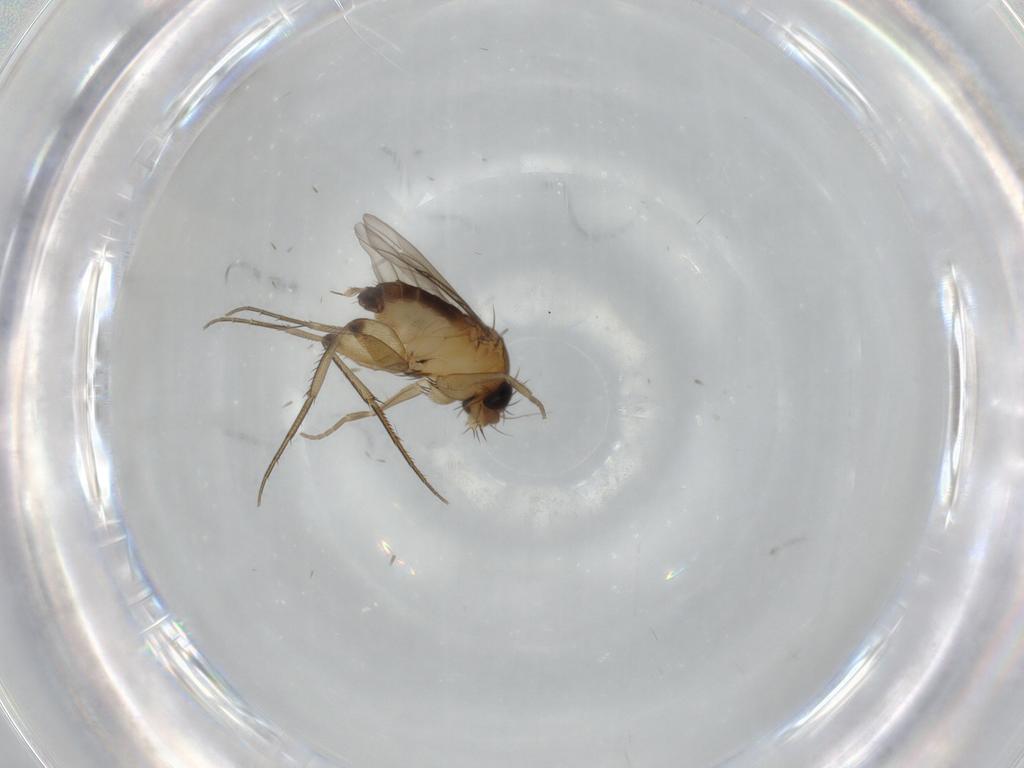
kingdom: Animalia
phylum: Arthropoda
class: Insecta
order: Diptera
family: Phoridae
